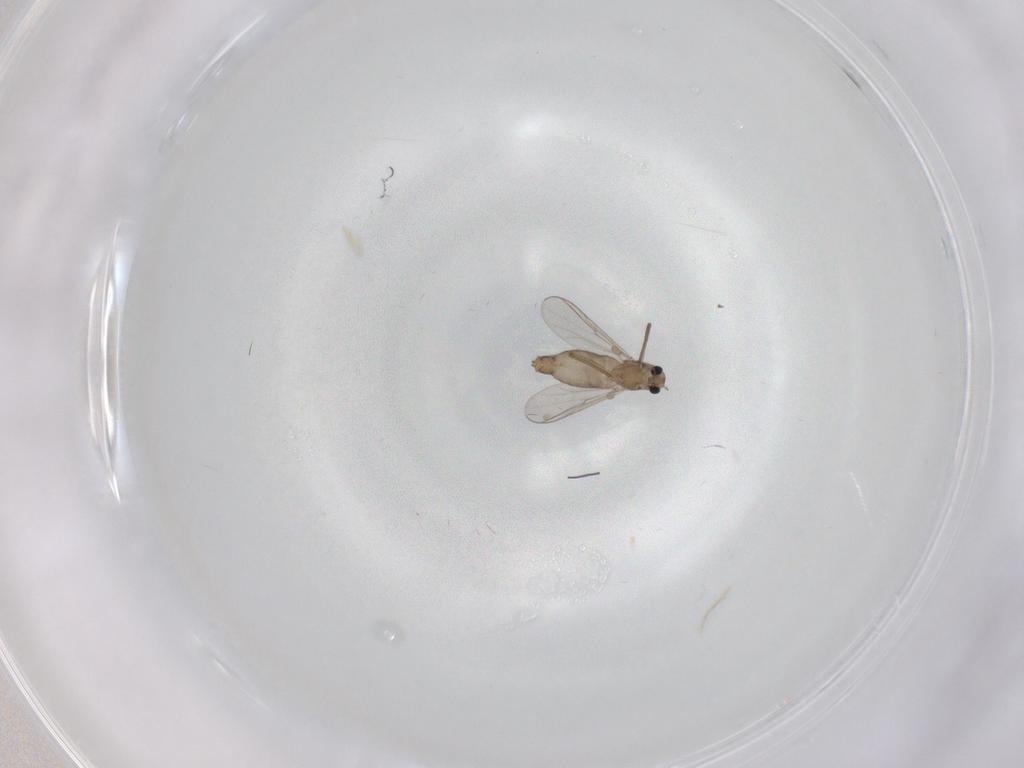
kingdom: Animalia
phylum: Arthropoda
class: Insecta
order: Diptera
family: Chironomidae
